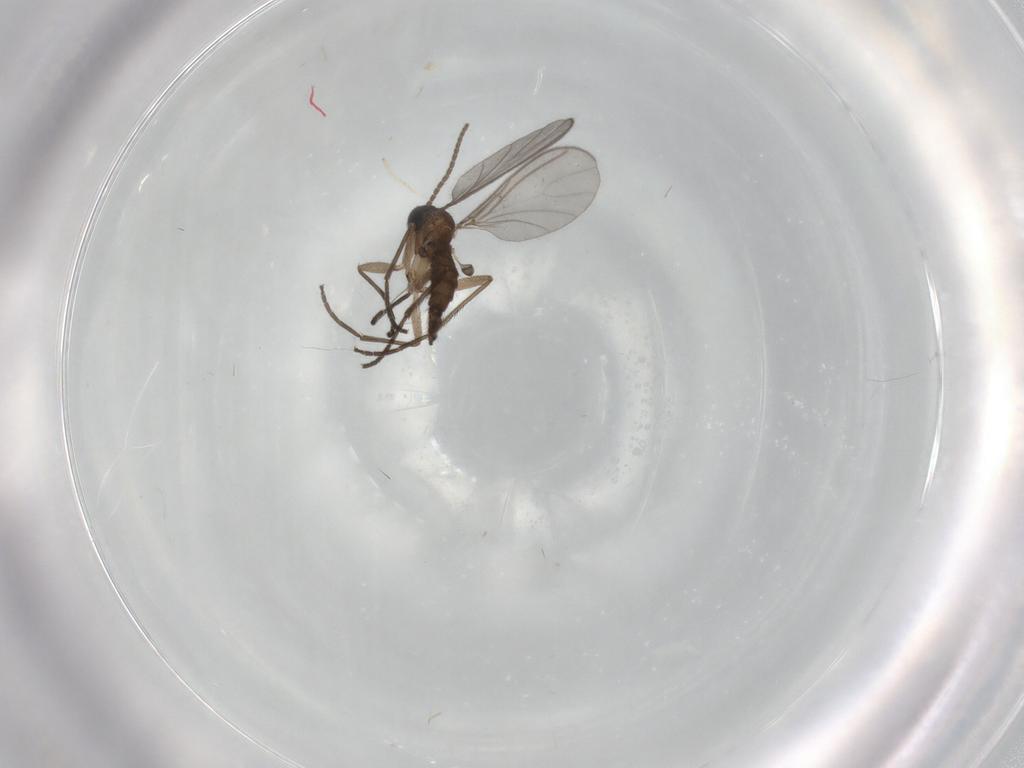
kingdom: Animalia
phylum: Arthropoda
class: Insecta
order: Diptera
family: Sciaridae
